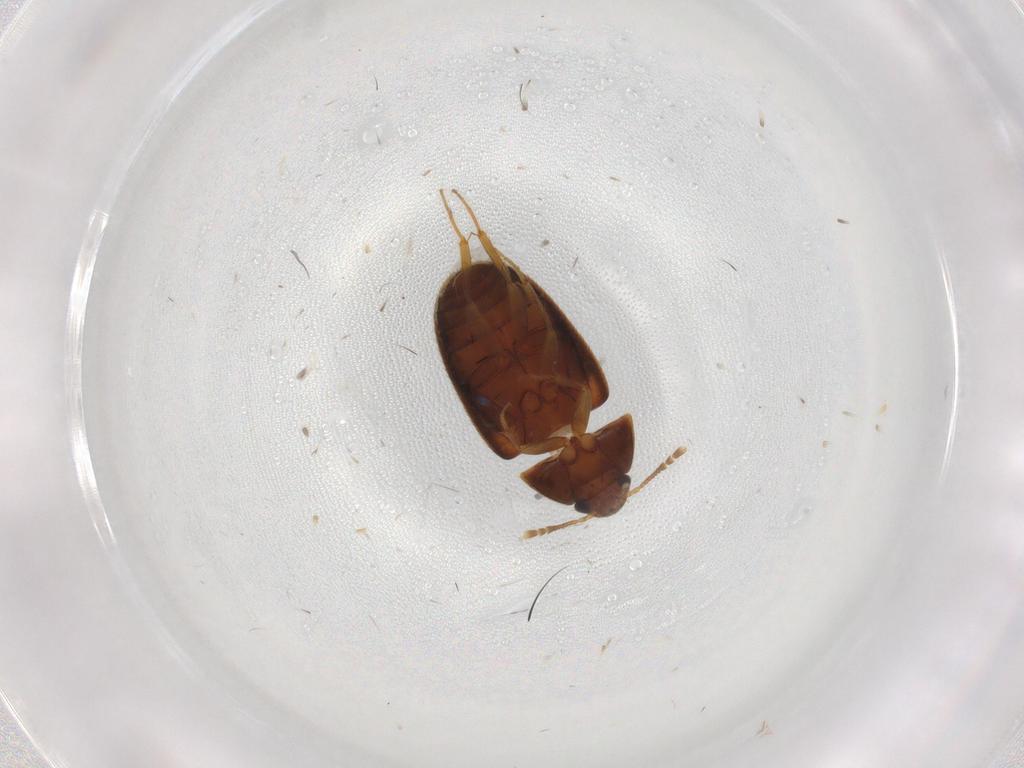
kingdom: Animalia
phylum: Arthropoda
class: Insecta
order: Coleoptera
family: Mycetophagidae
